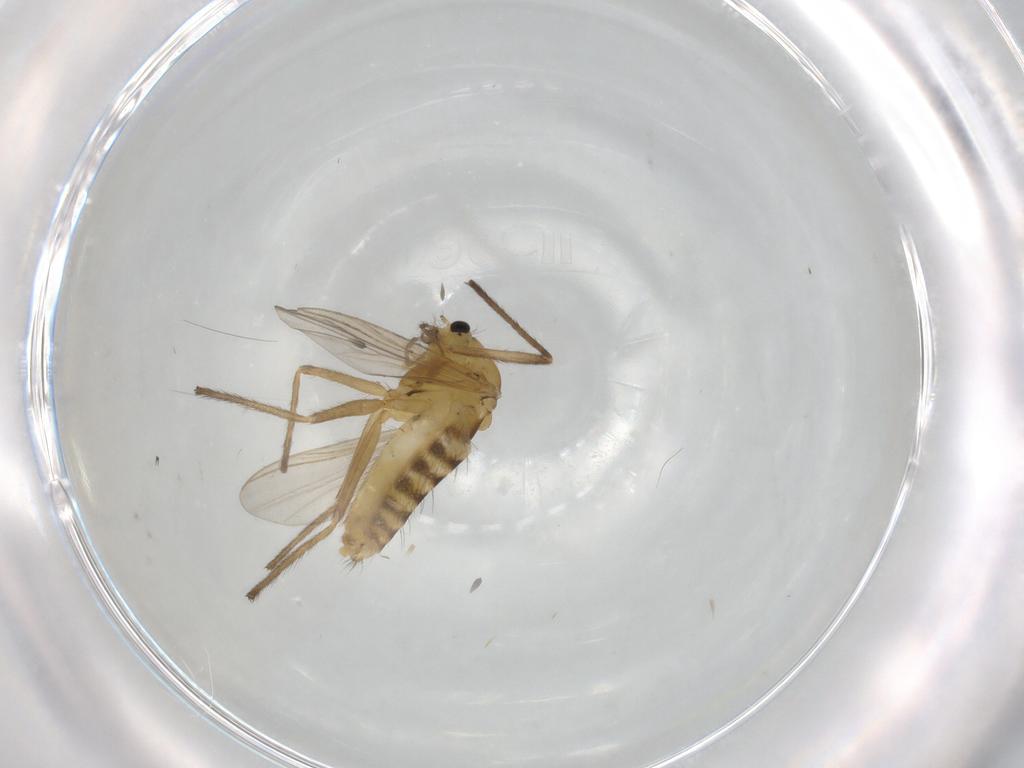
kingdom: Animalia
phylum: Arthropoda
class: Insecta
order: Diptera
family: Chironomidae
